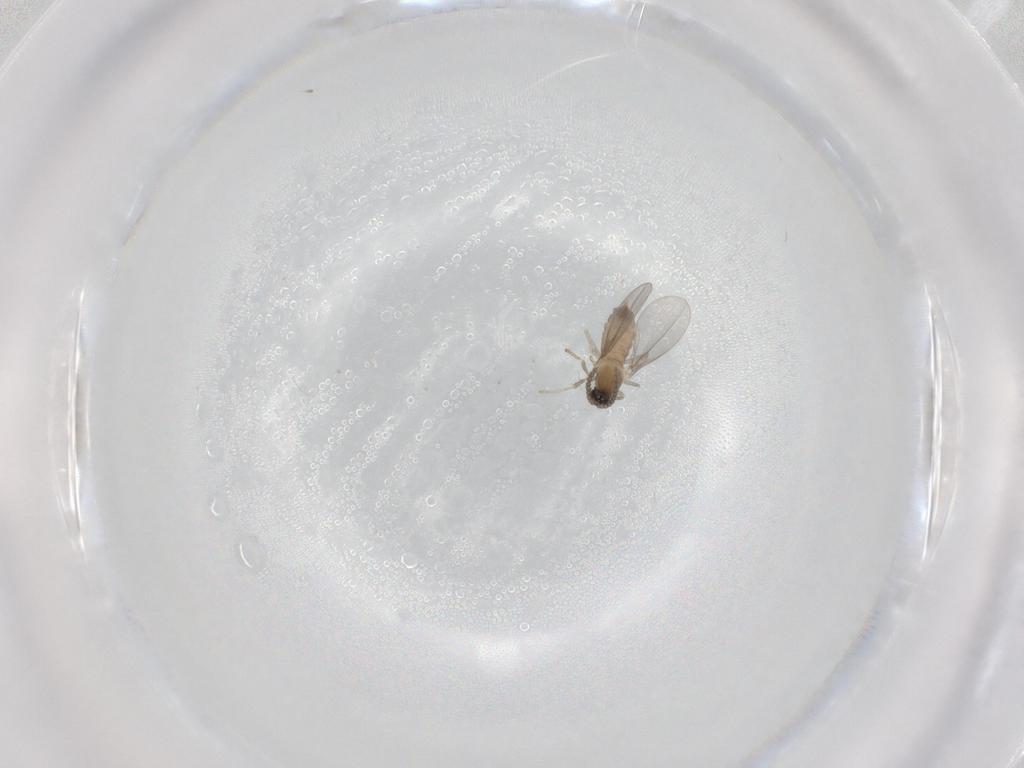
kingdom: Animalia
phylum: Arthropoda
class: Insecta
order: Diptera
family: Cecidomyiidae
